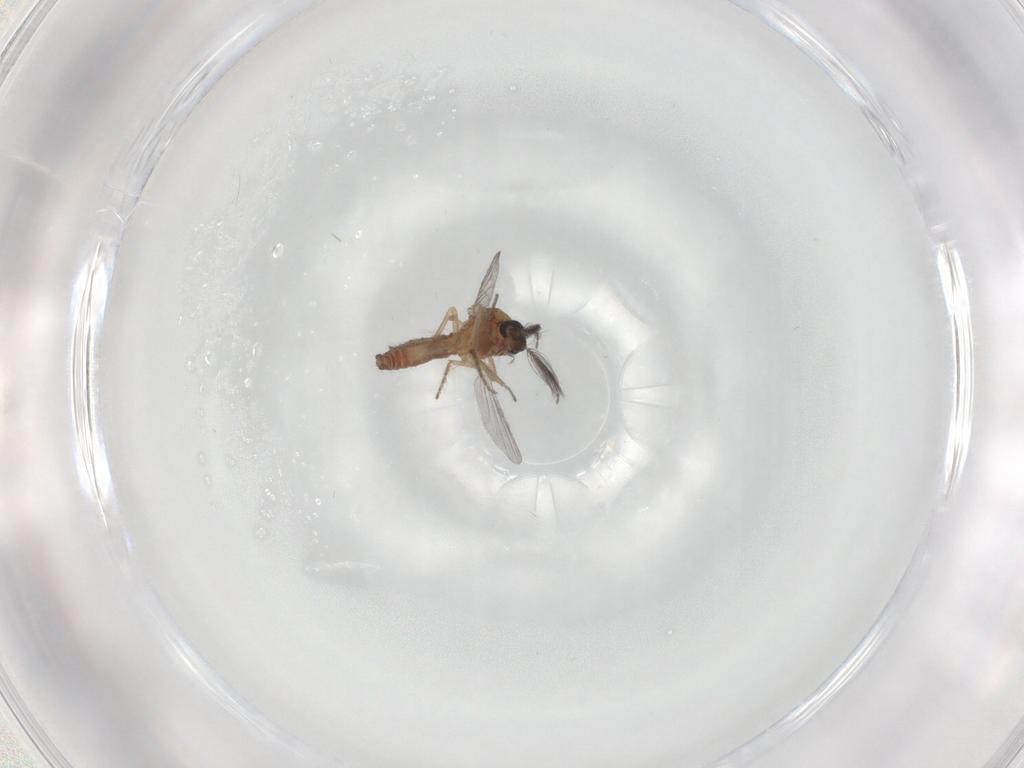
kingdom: Animalia
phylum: Arthropoda
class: Insecta
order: Diptera
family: Ceratopogonidae
